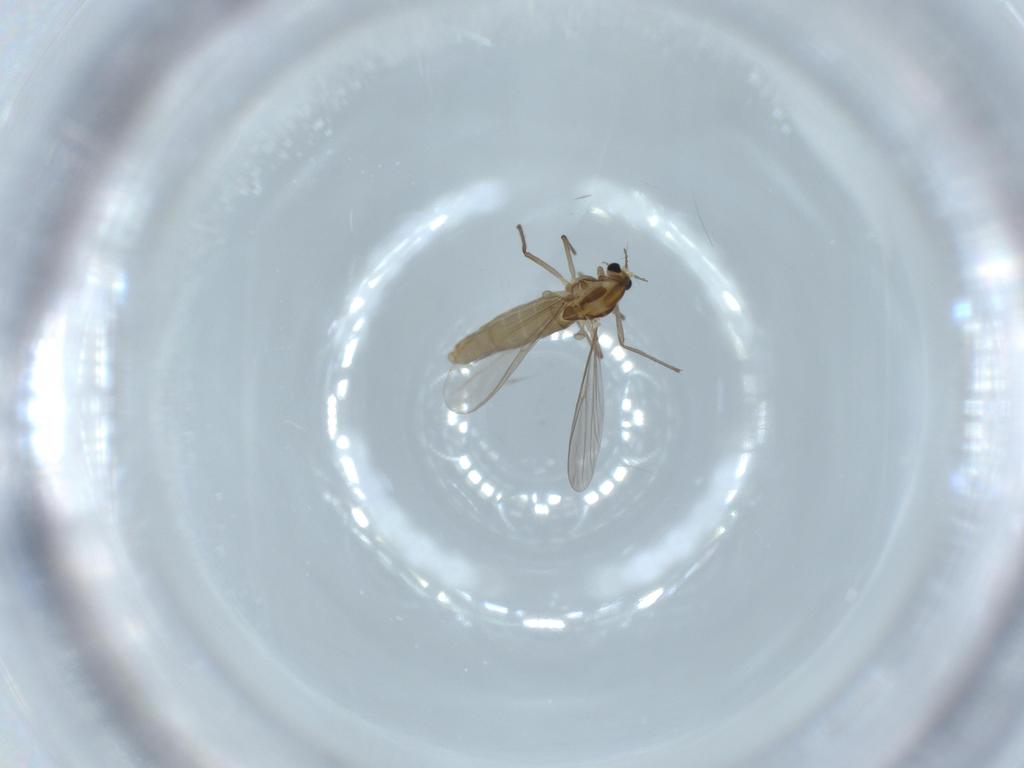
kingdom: Animalia
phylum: Arthropoda
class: Insecta
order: Diptera
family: Chironomidae
